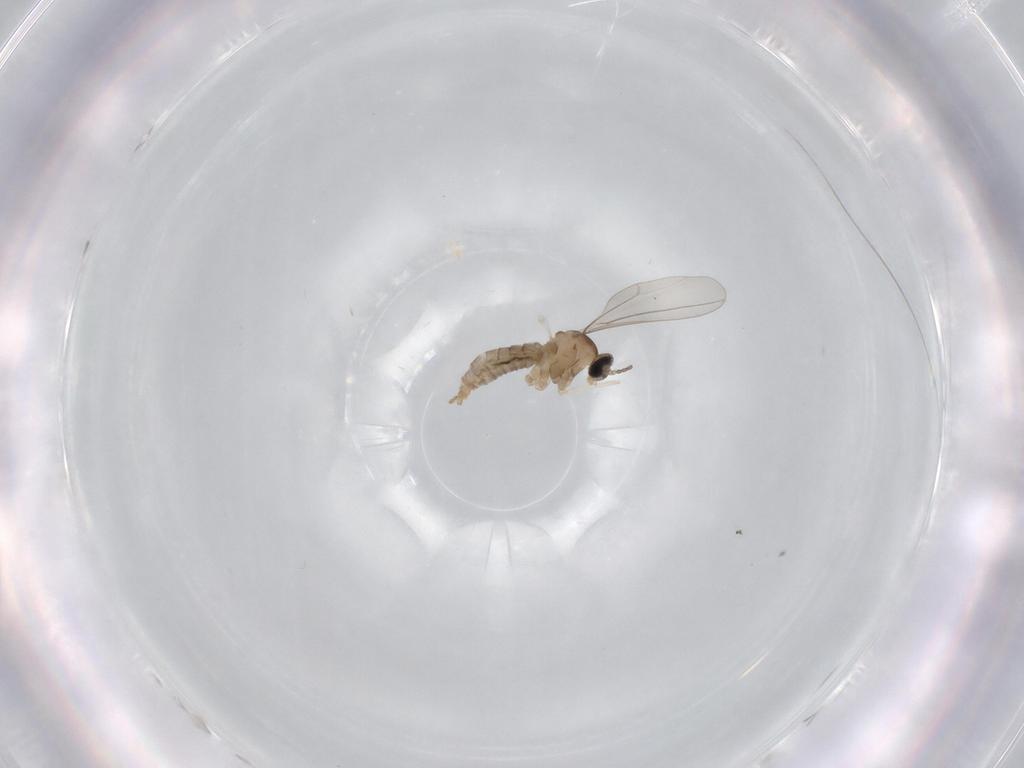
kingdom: Animalia
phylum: Arthropoda
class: Insecta
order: Diptera
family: Cecidomyiidae
